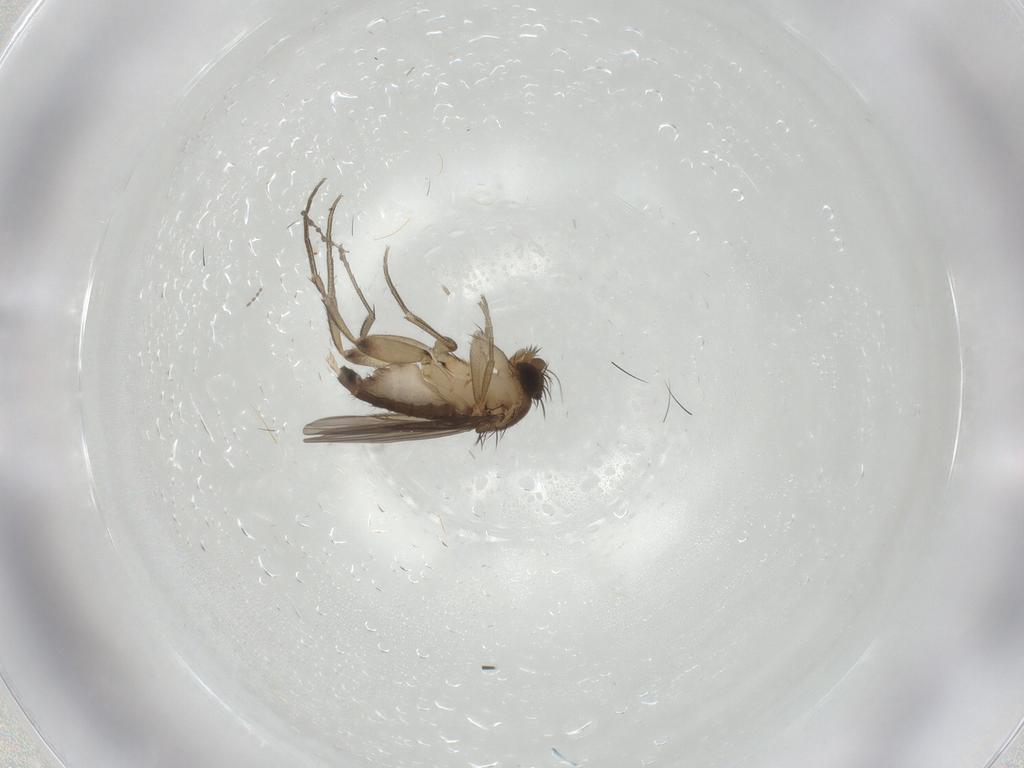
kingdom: Animalia
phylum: Arthropoda
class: Insecta
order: Diptera
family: Phoridae
